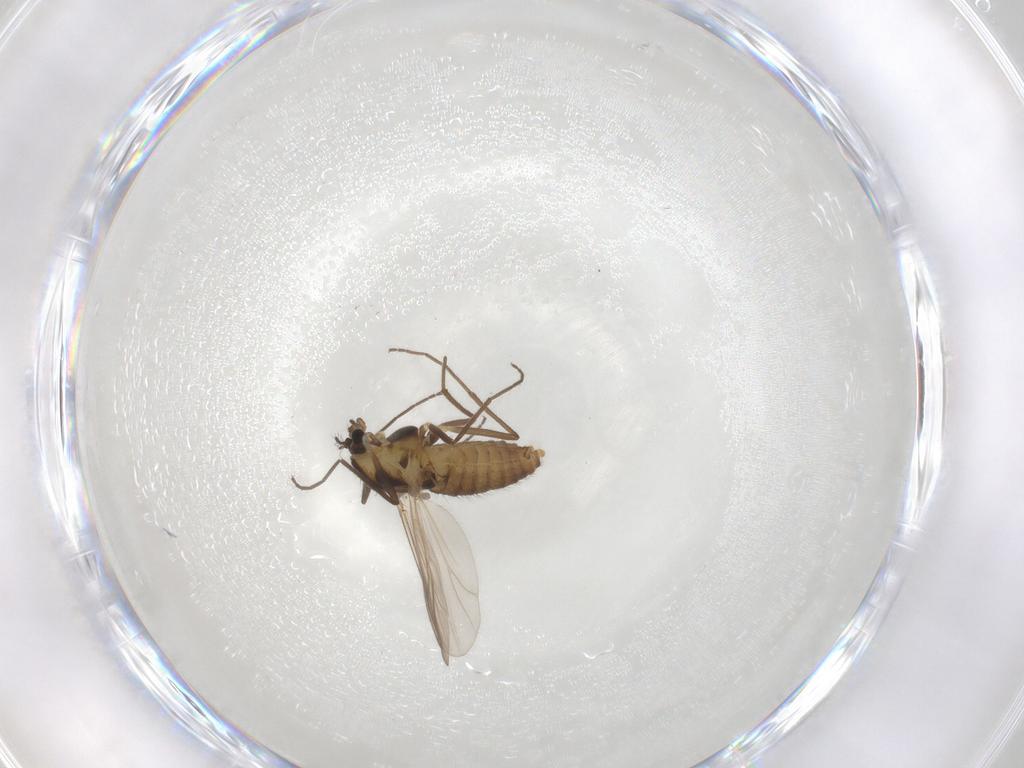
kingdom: Animalia
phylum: Arthropoda
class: Insecta
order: Diptera
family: Chironomidae
